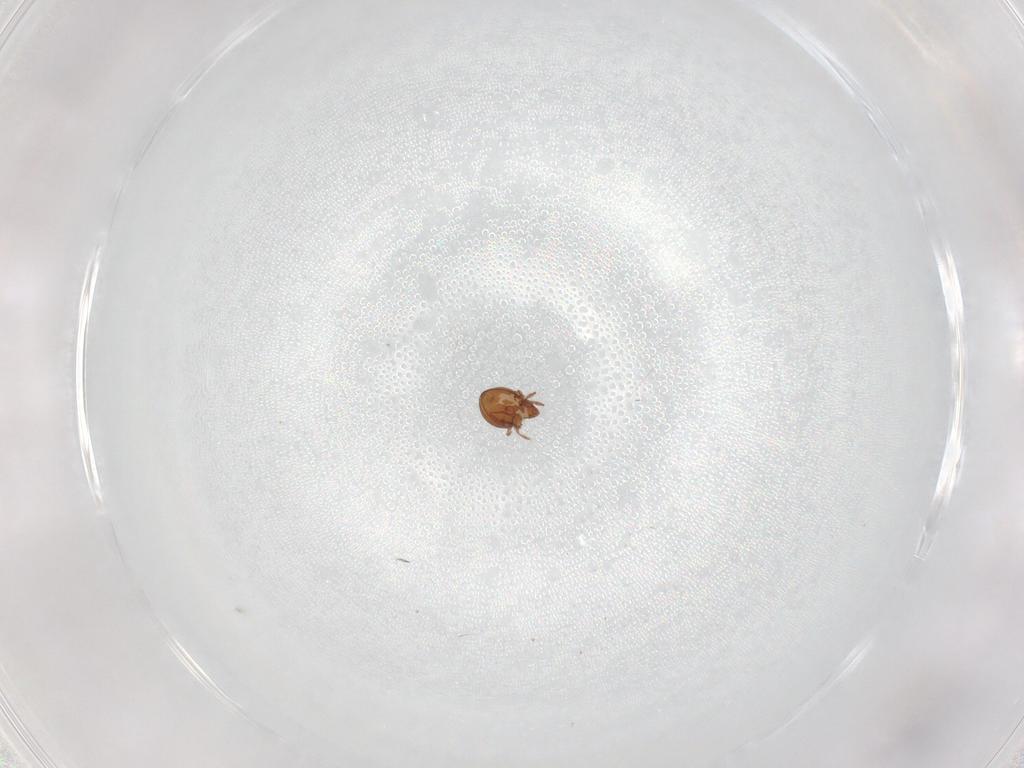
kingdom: Animalia
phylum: Arthropoda
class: Arachnida
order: Sarcoptiformes
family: Oribatulidae
